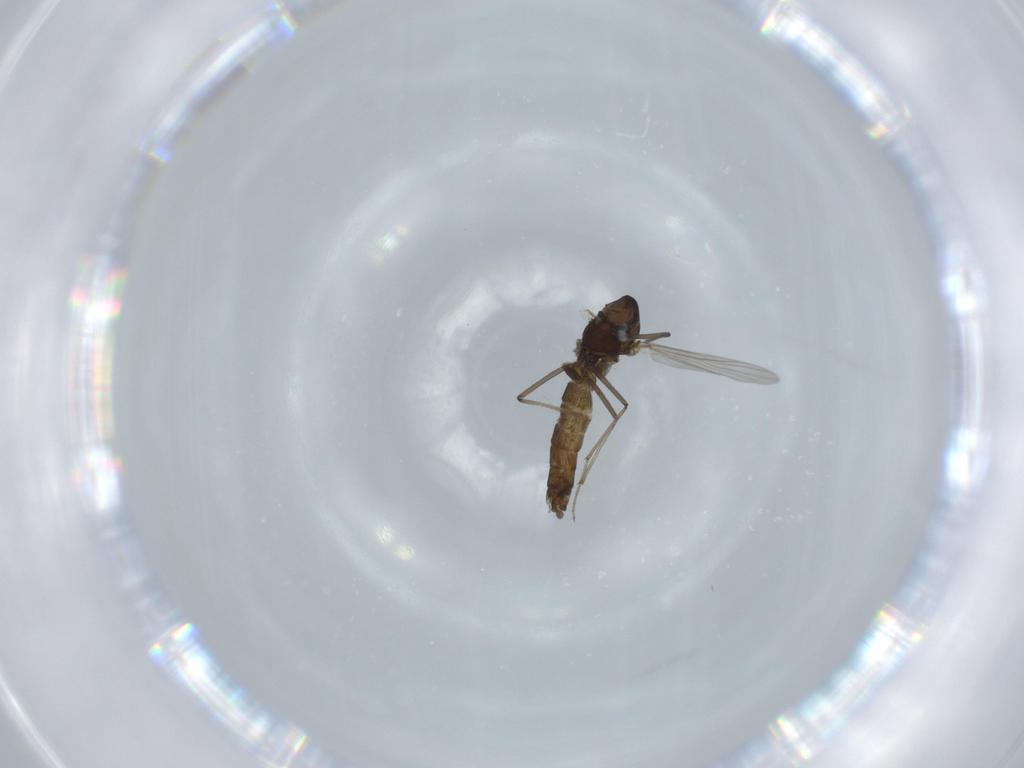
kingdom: Animalia
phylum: Arthropoda
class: Insecta
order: Diptera
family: Chironomidae
